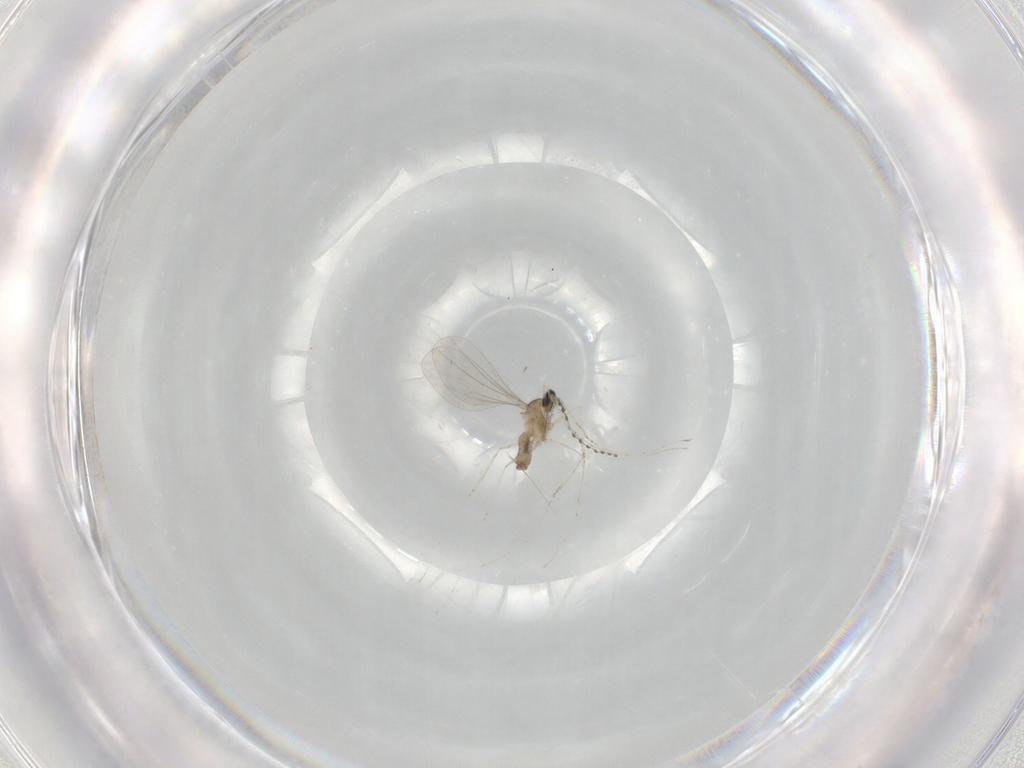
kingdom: Animalia
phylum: Arthropoda
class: Insecta
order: Diptera
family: Cecidomyiidae
